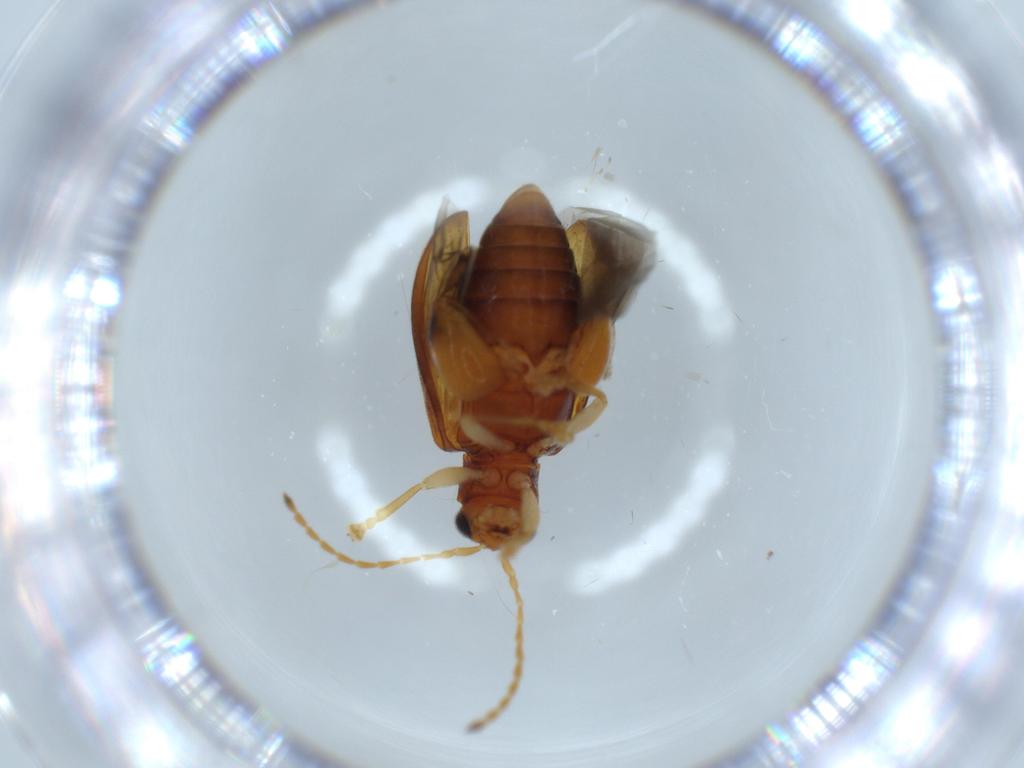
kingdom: Animalia
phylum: Arthropoda
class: Insecta
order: Coleoptera
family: Chrysomelidae
